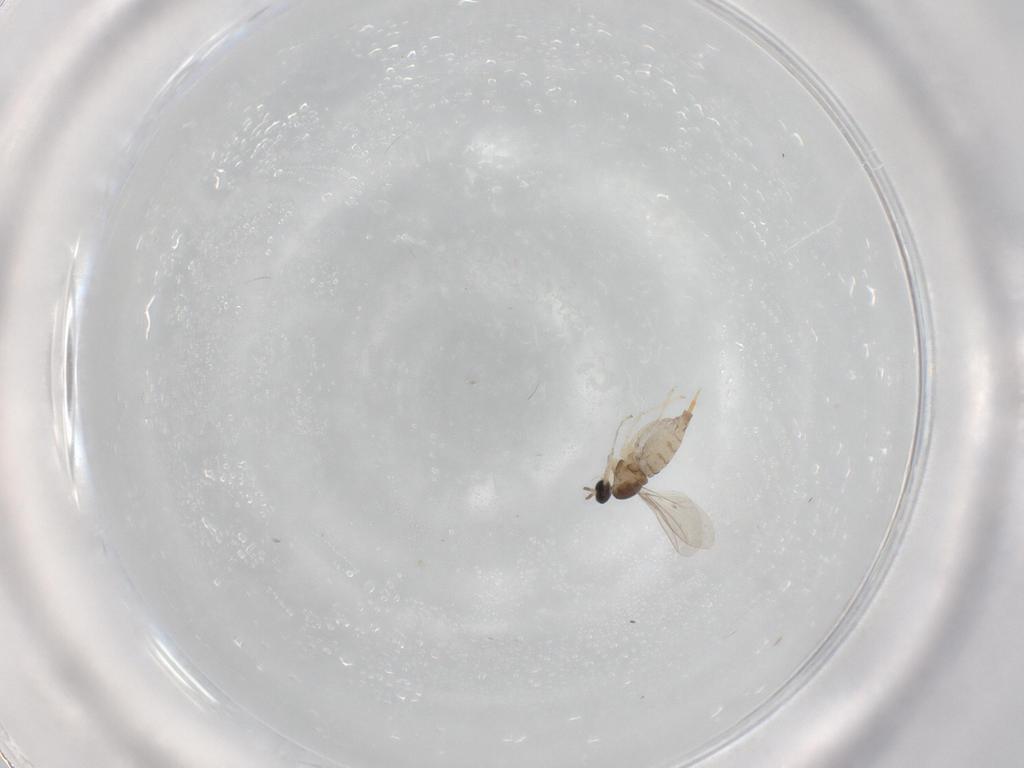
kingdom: Animalia
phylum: Arthropoda
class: Insecta
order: Diptera
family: Cecidomyiidae
